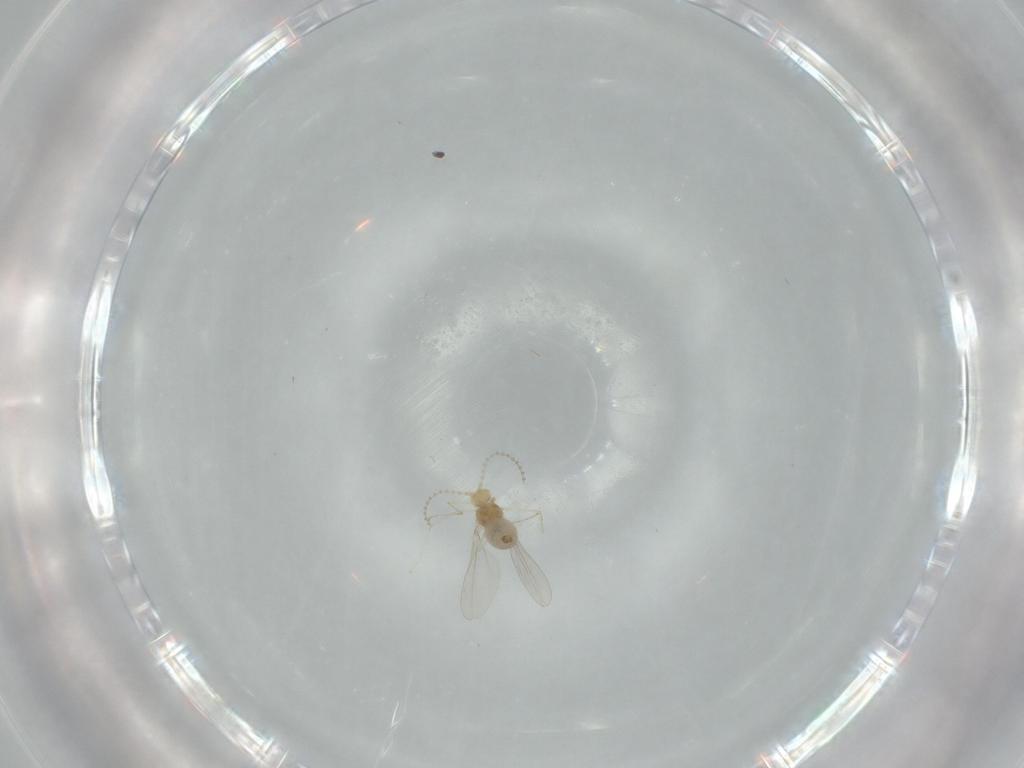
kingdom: Animalia
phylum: Arthropoda
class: Insecta
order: Diptera
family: Cecidomyiidae
